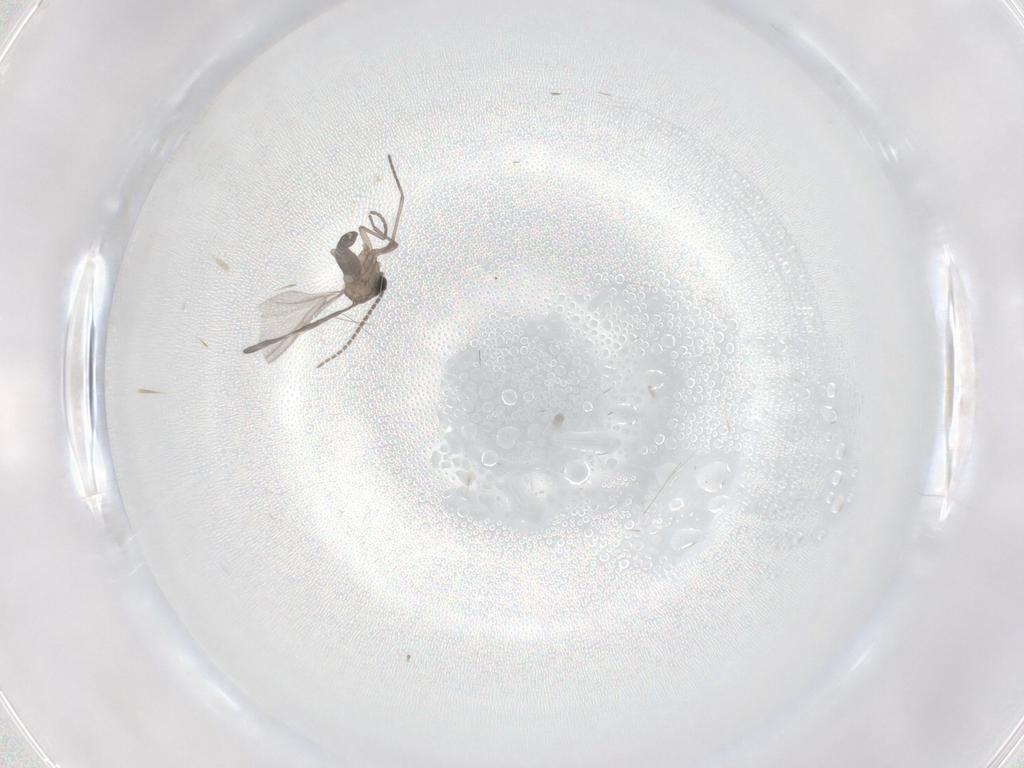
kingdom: Animalia
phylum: Arthropoda
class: Insecta
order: Diptera
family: Sciaridae
